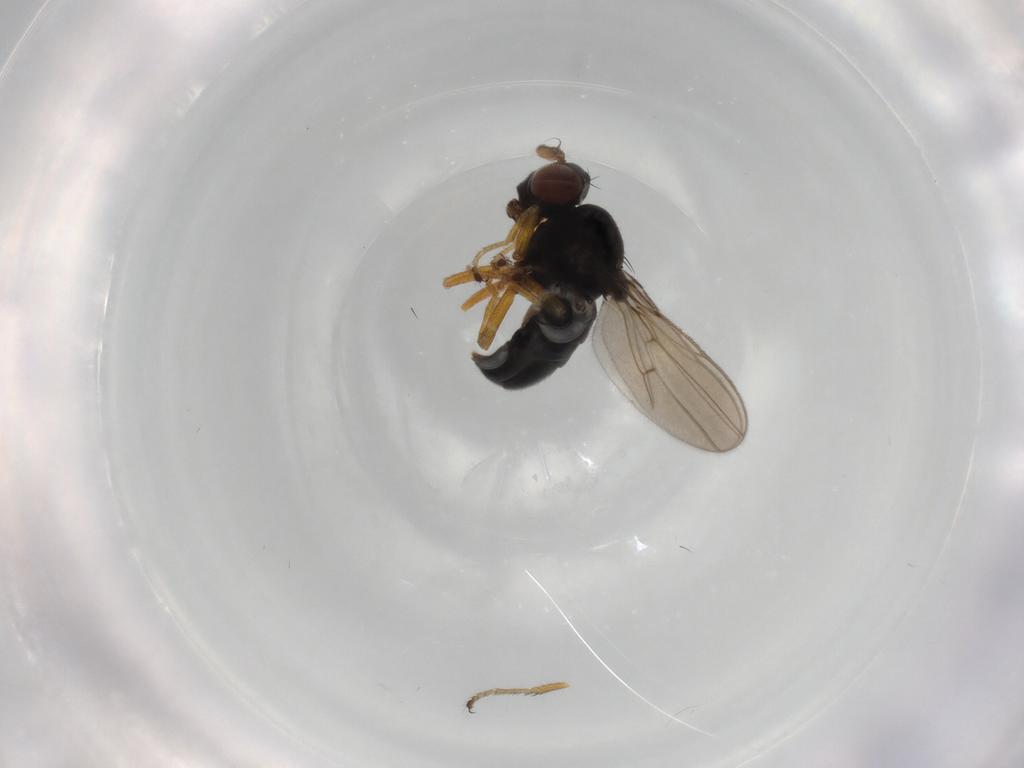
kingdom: Animalia
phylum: Arthropoda
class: Insecta
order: Diptera
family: Ephydridae
